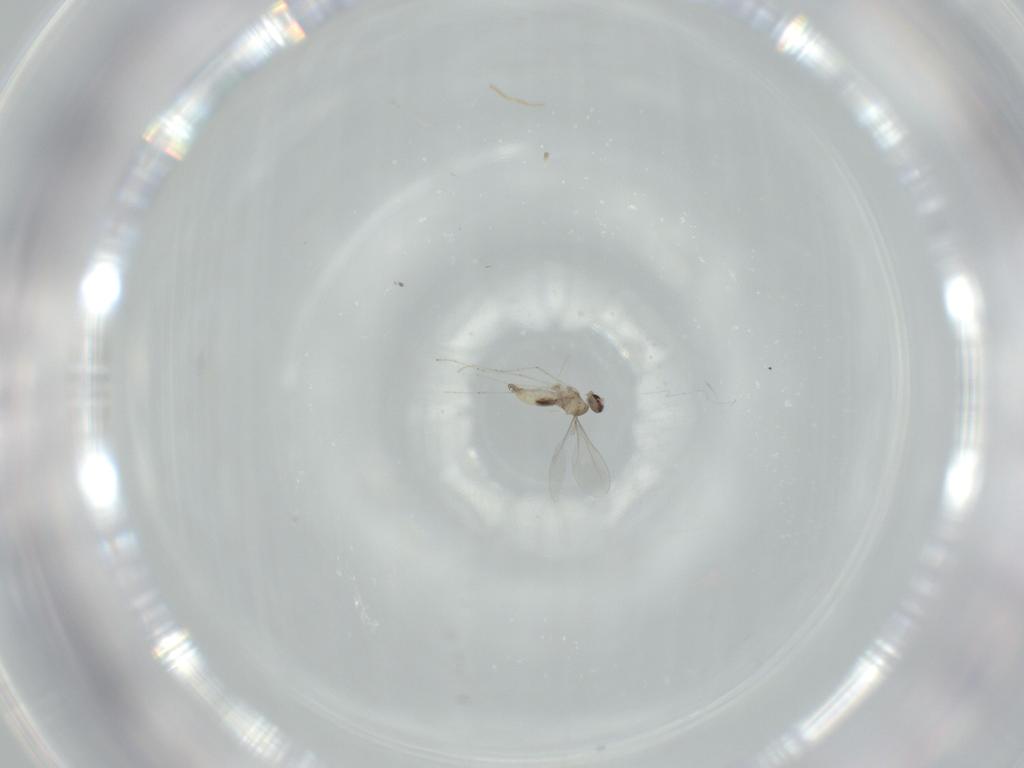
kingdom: Animalia
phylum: Arthropoda
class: Insecta
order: Diptera
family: Cecidomyiidae
